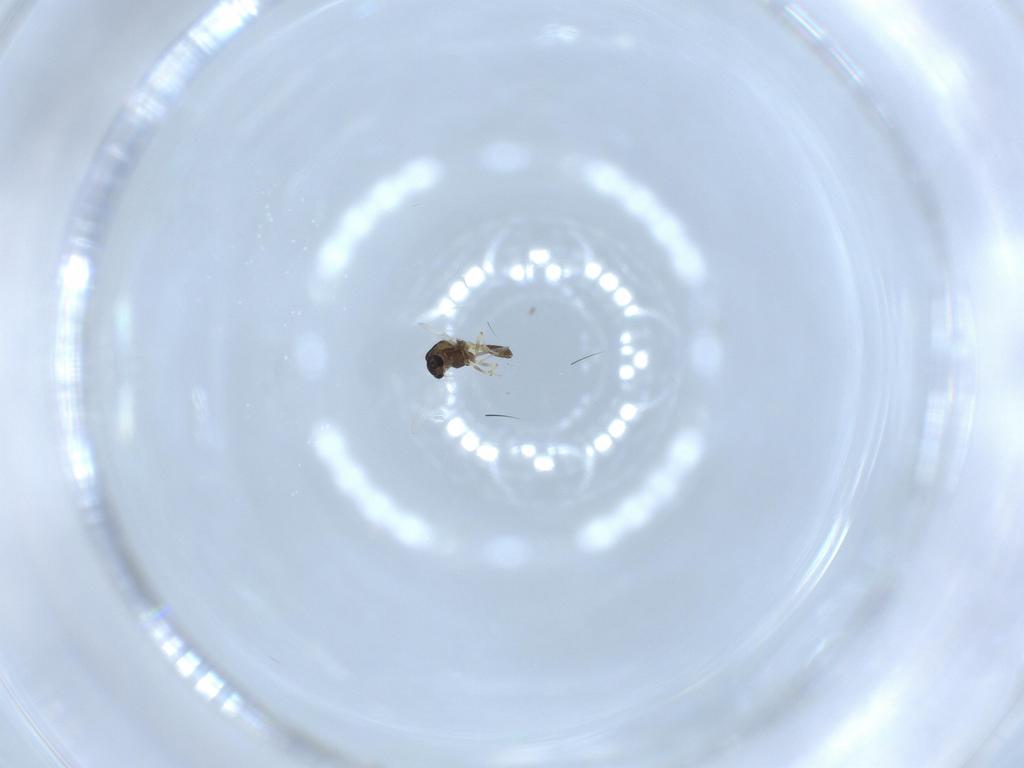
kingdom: Animalia
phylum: Arthropoda
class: Insecta
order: Diptera
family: Chironomidae
